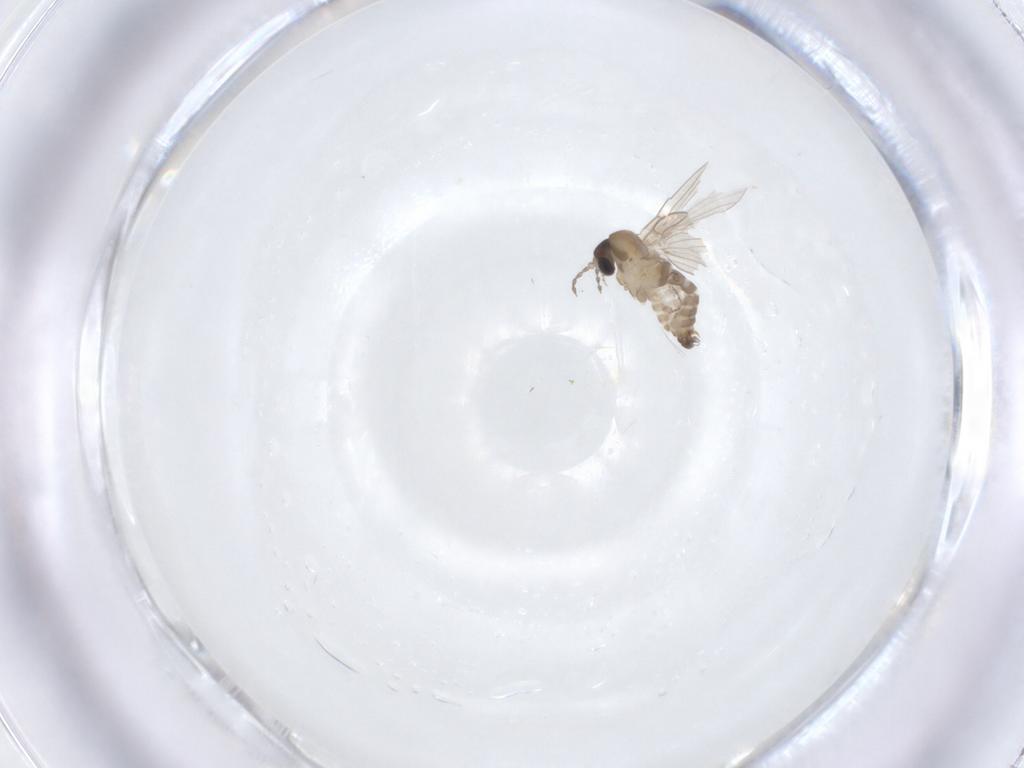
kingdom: Animalia
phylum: Arthropoda
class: Insecta
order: Diptera
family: Psychodidae
